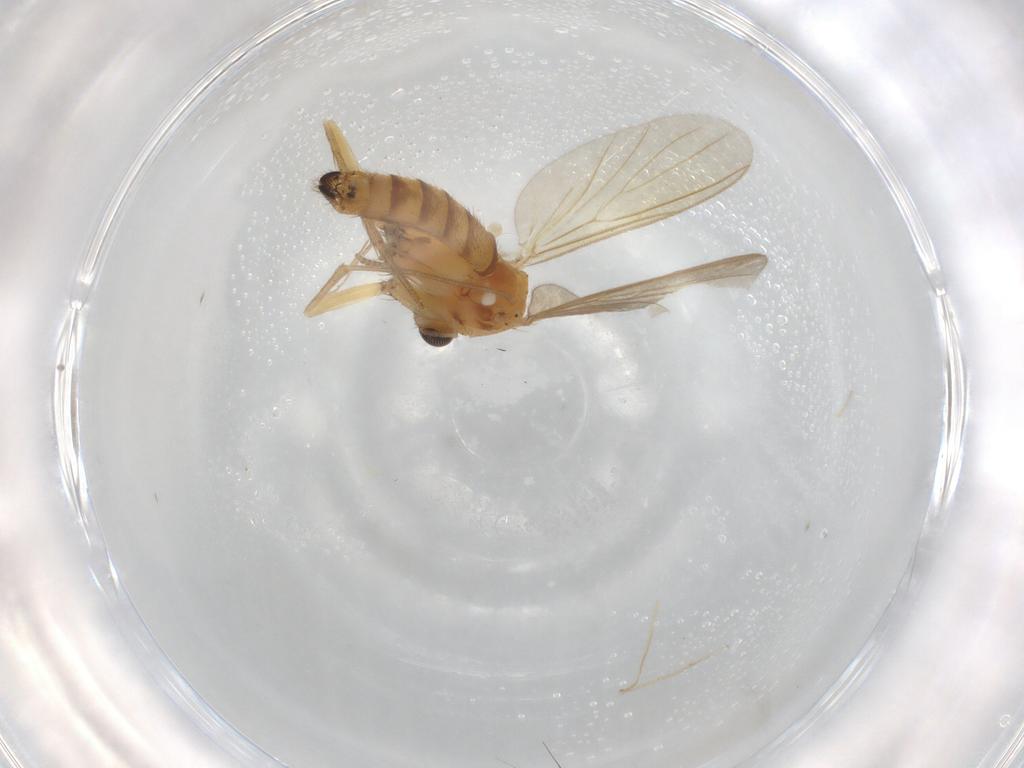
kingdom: Animalia
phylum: Arthropoda
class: Insecta
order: Diptera
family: Mycetophilidae
